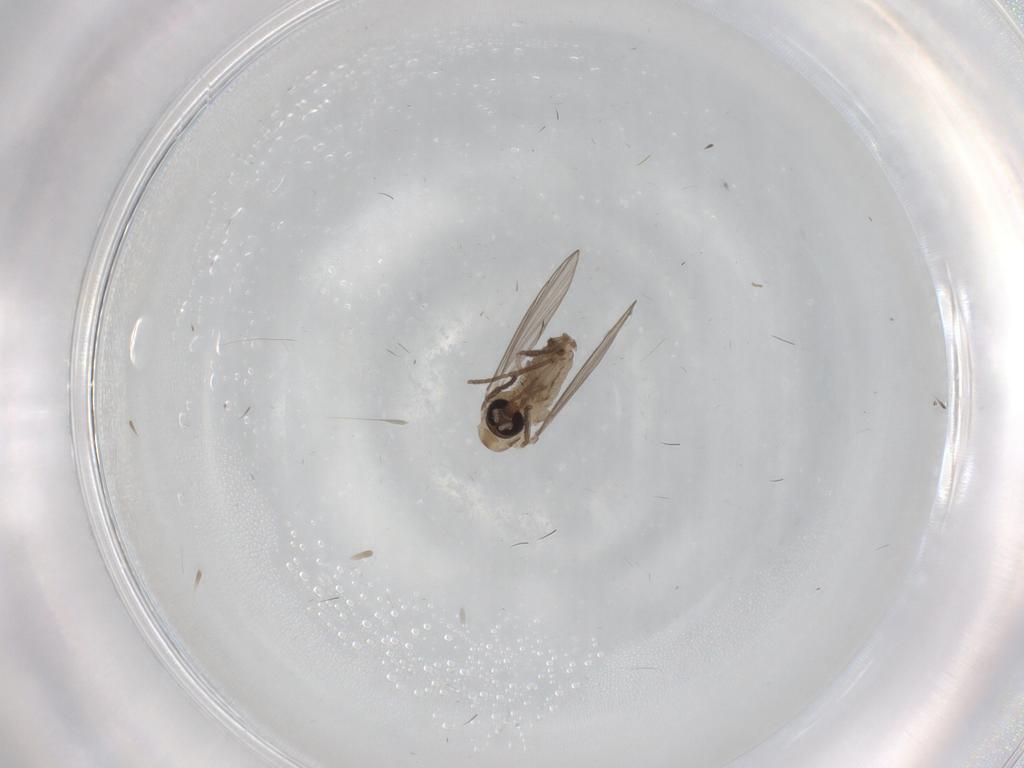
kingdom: Animalia
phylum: Arthropoda
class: Insecta
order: Diptera
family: Psychodidae
